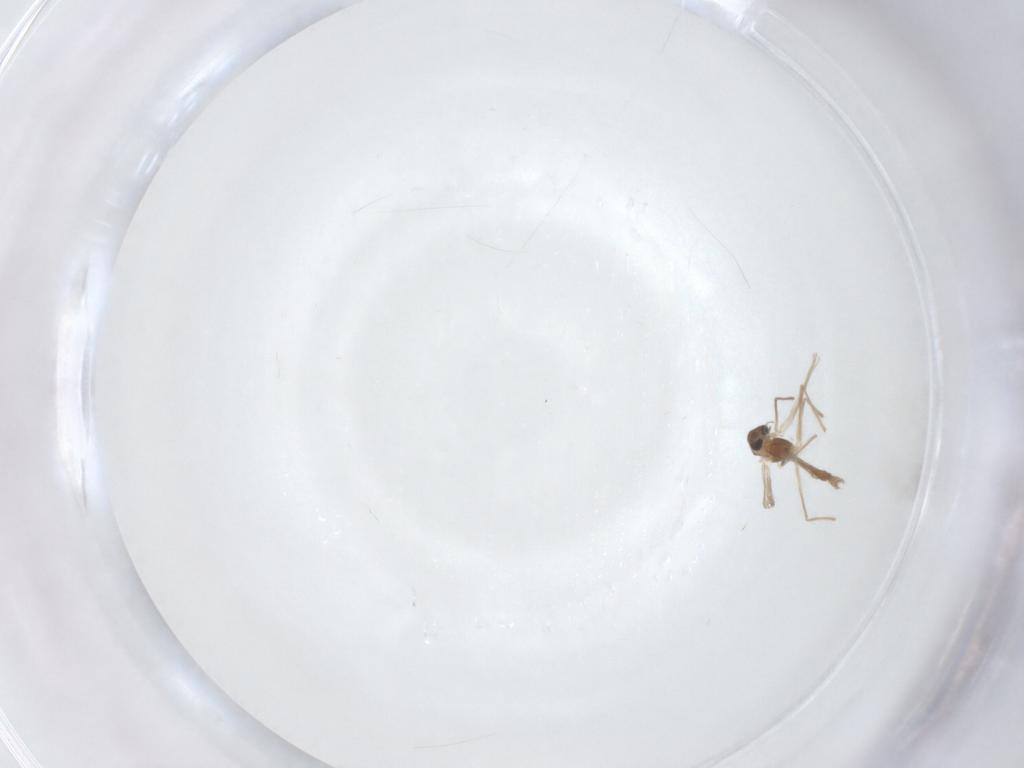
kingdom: Animalia
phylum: Arthropoda
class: Insecta
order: Diptera
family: Chironomidae
